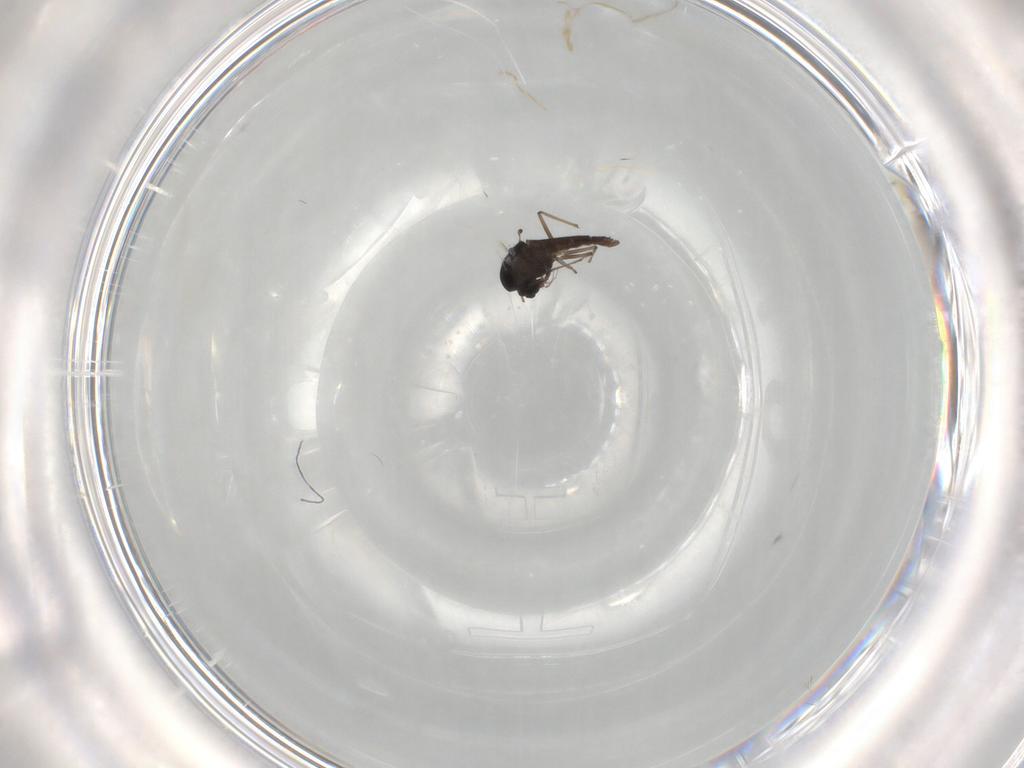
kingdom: Animalia
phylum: Arthropoda
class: Insecta
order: Diptera
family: Chironomidae
